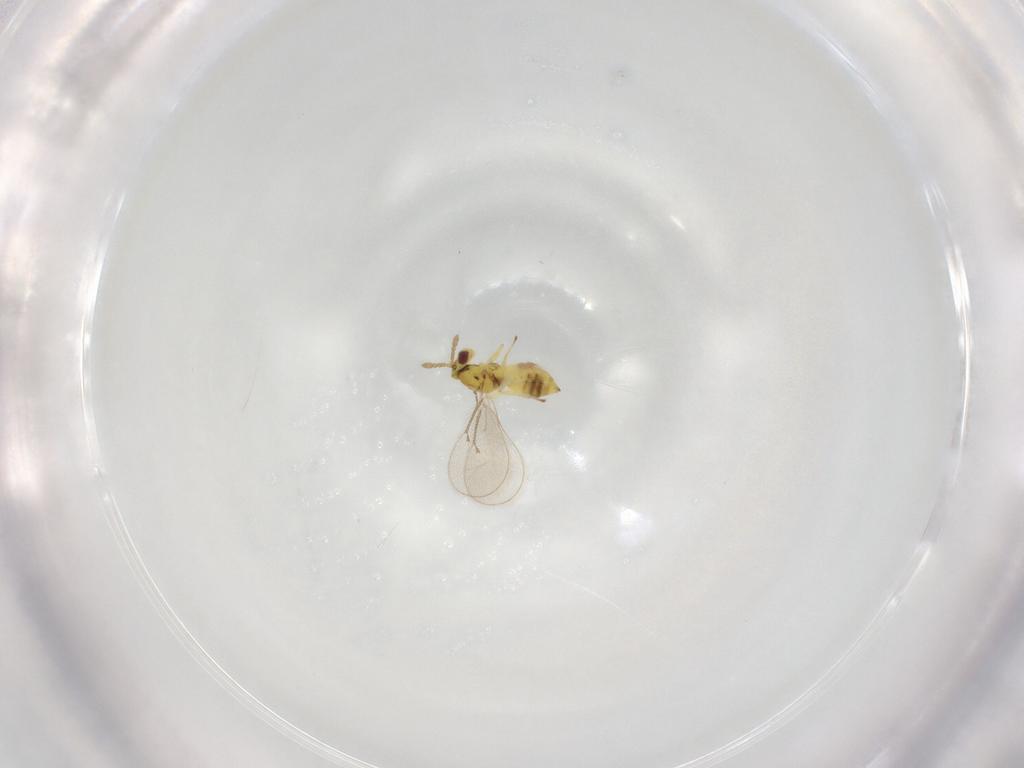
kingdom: Animalia
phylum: Arthropoda
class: Insecta
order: Hymenoptera
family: Eulophidae
